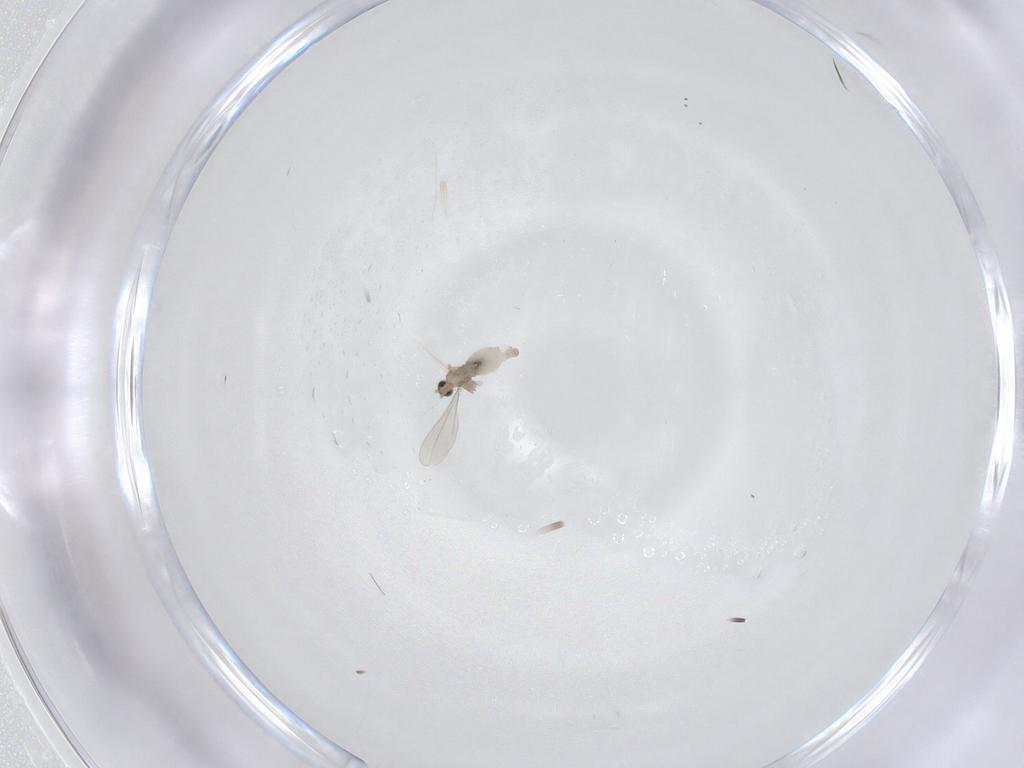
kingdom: Animalia
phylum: Arthropoda
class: Insecta
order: Diptera
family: Cecidomyiidae
